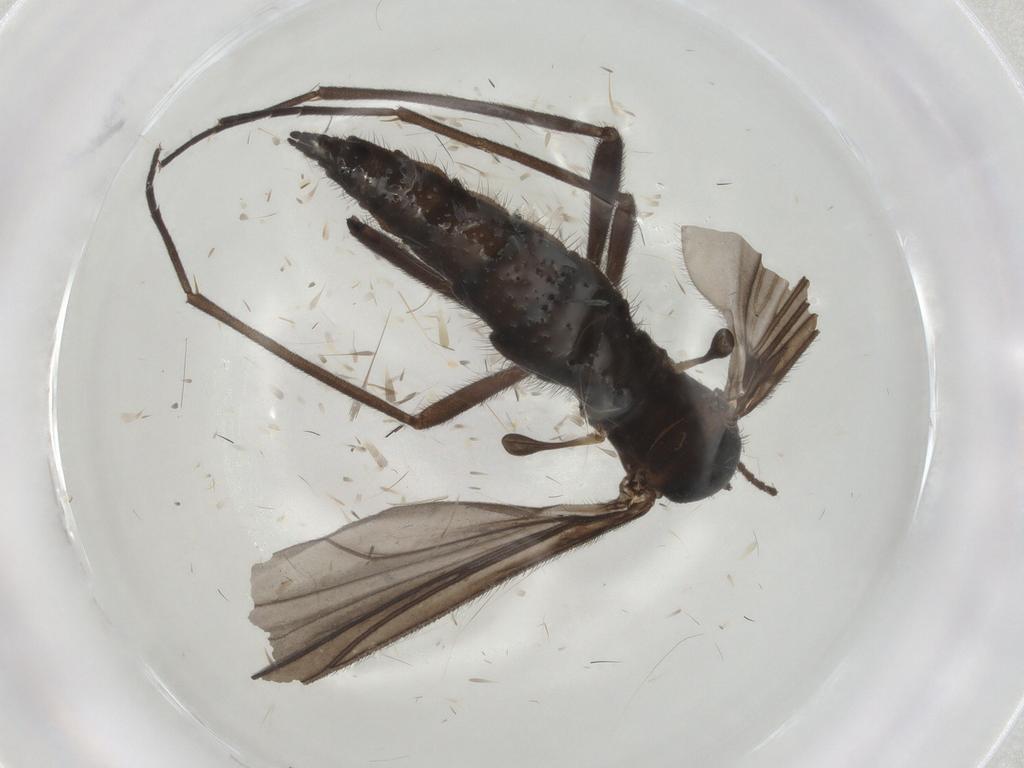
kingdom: Animalia
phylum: Arthropoda
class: Insecta
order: Diptera
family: Sciaridae
